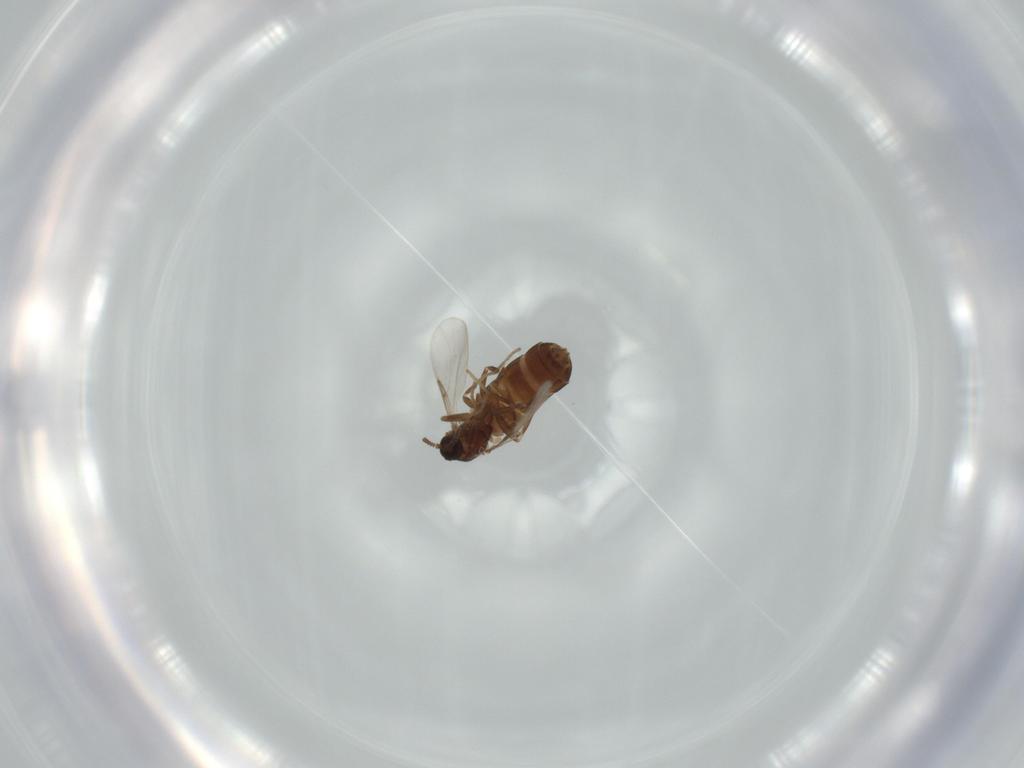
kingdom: Animalia
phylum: Arthropoda
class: Insecta
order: Diptera
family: Scatopsidae
